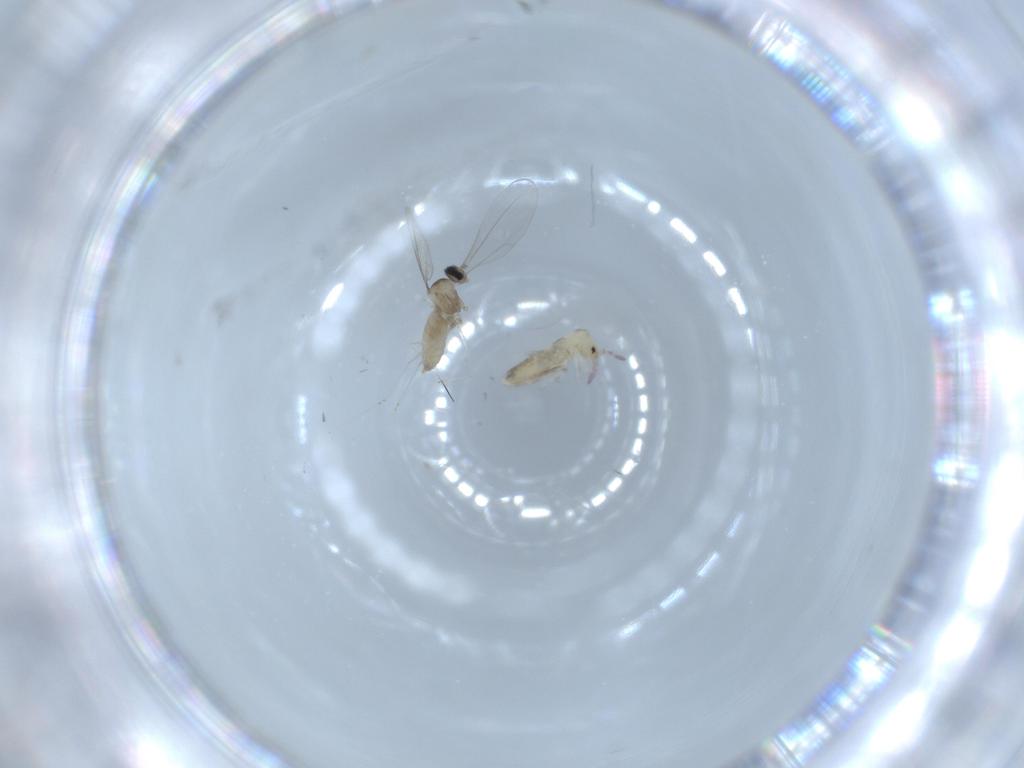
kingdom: Animalia
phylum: Arthropoda
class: Insecta
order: Diptera
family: Cecidomyiidae
